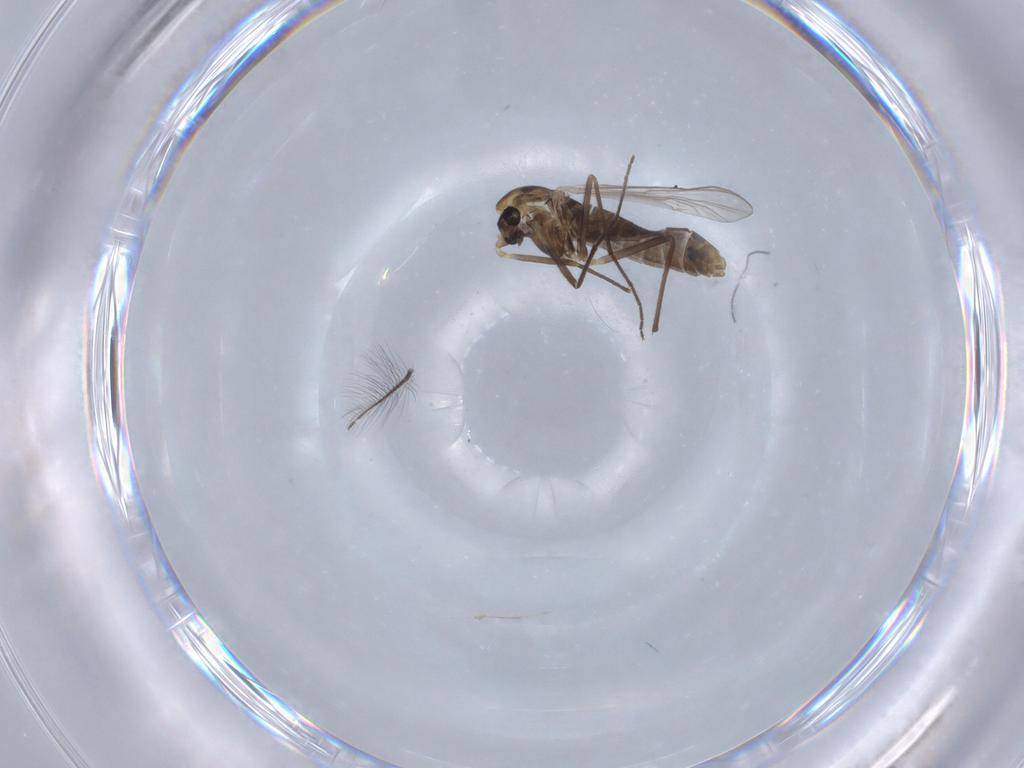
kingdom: Animalia
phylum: Arthropoda
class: Insecta
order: Diptera
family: Chironomidae
